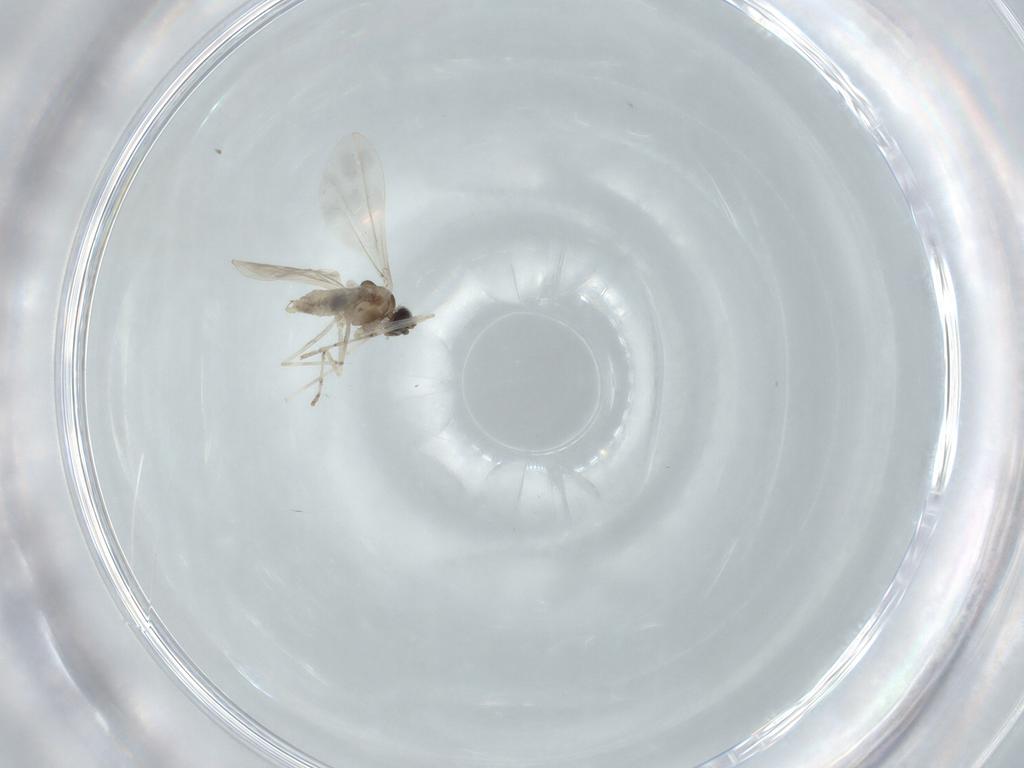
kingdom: Animalia
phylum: Arthropoda
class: Insecta
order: Diptera
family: Cecidomyiidae
